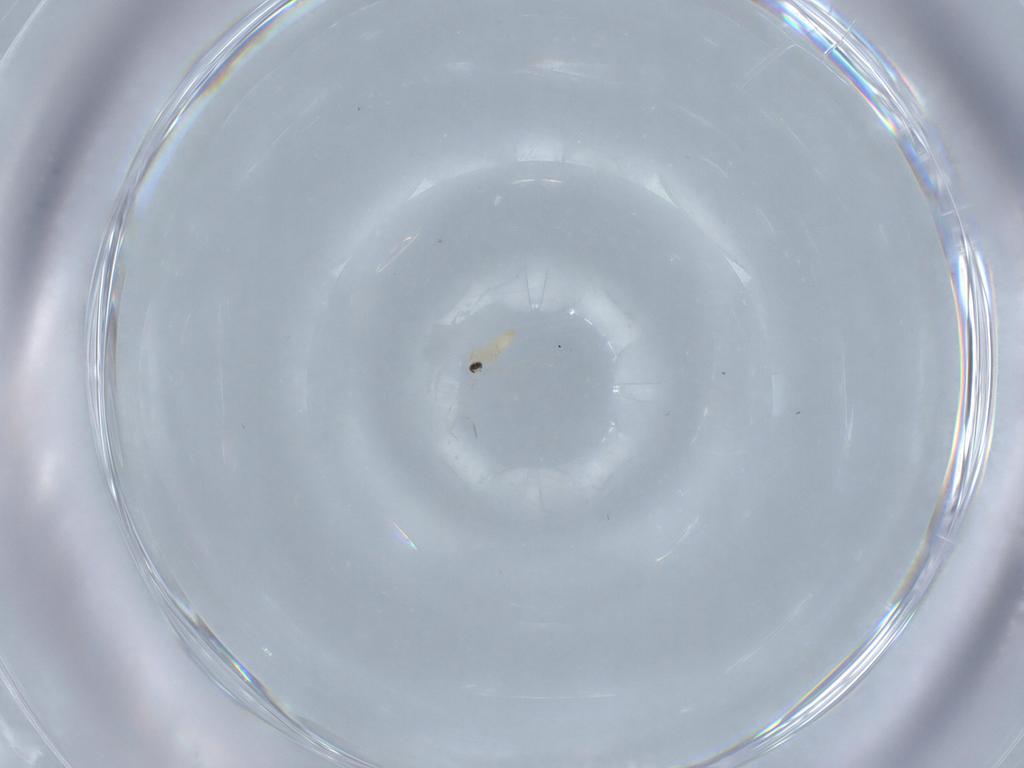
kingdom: Animalia
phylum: Arthropoda
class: Insecta
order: Diptera
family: Cecidomyiidae
